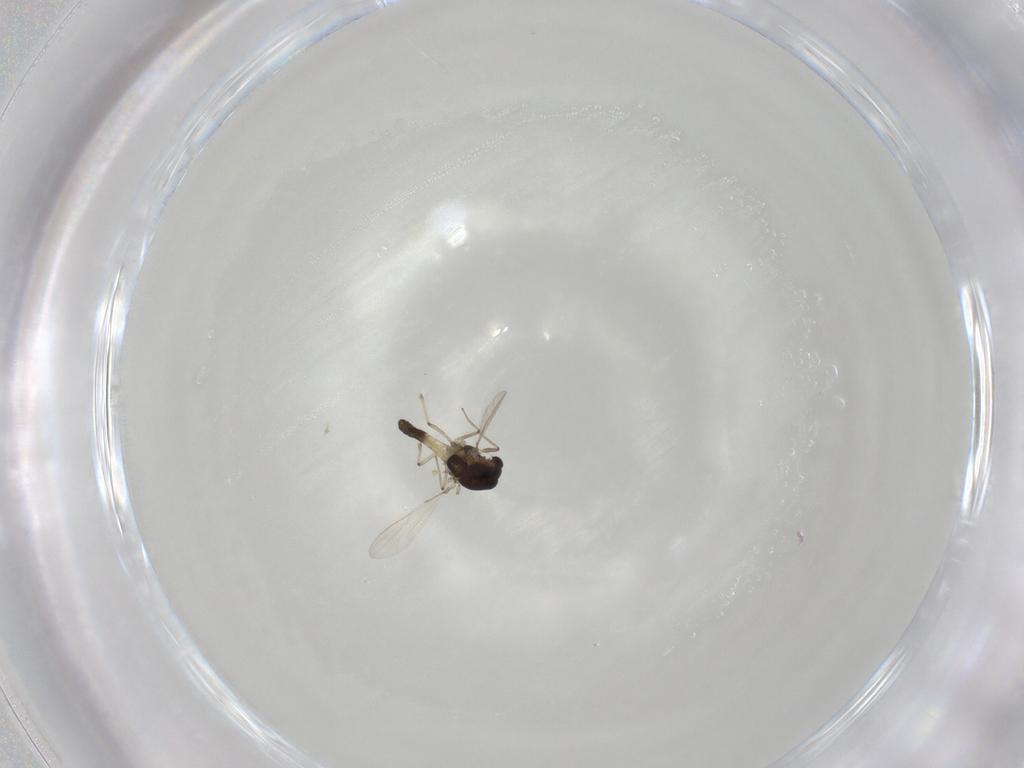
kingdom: Animalia
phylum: Arthropoda
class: Insecta
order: Diptera
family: Chironomidae
